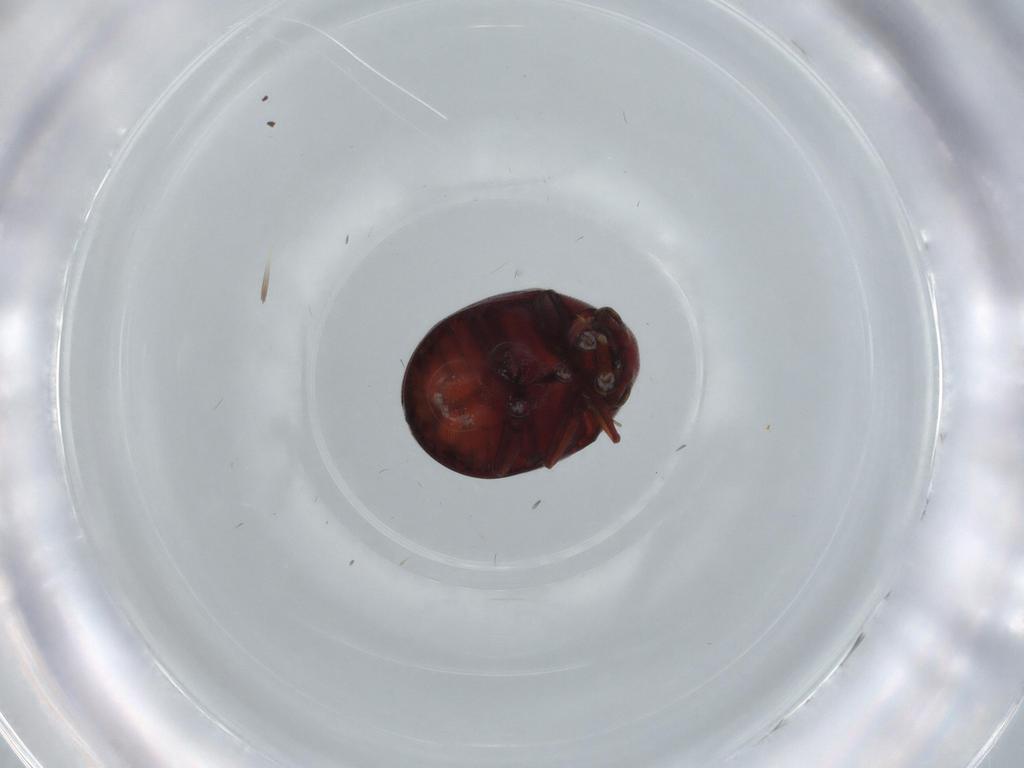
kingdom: Animalia
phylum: Arthropoda
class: Insecta
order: Coleoptera
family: Ptinidae
